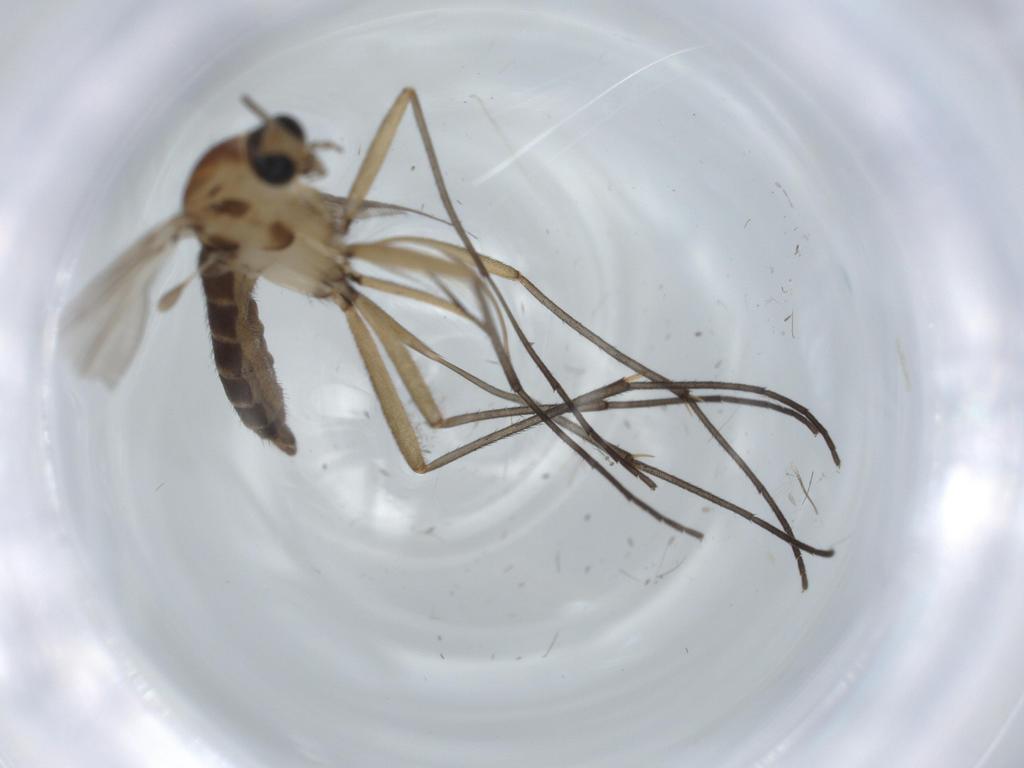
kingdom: Animalia
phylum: Arthropoda
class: Insecta
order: Diptera
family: Sciaridae
